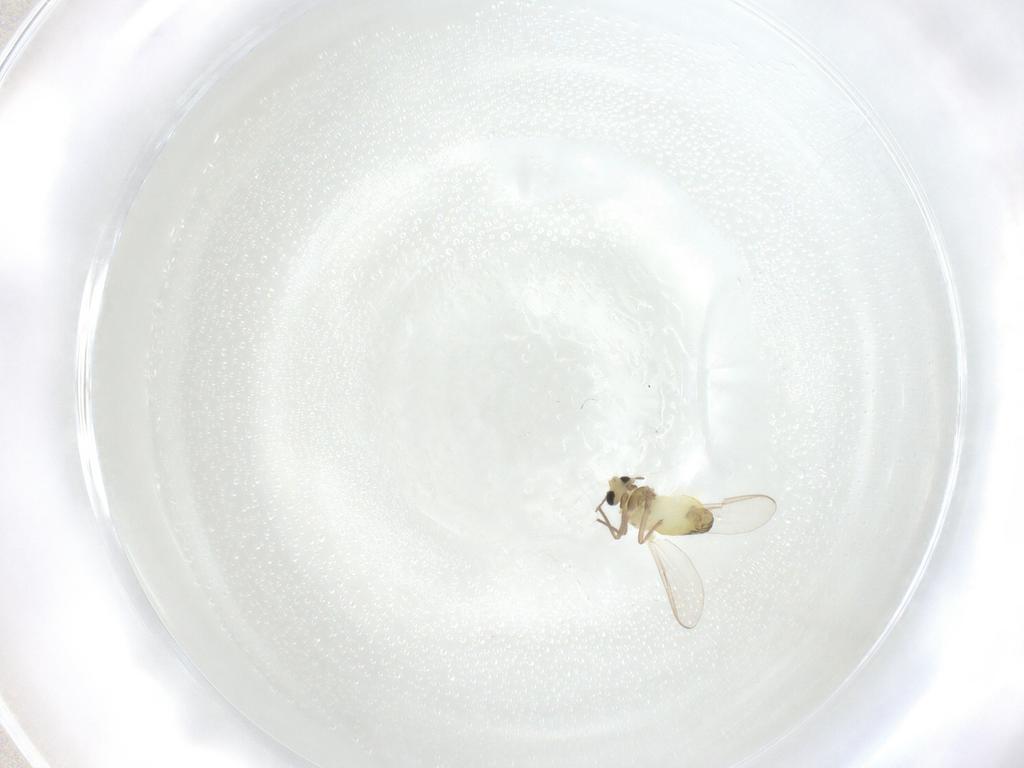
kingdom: Animalia
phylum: Arthropoda
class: Insecta
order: Diptera
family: Chironomidae
